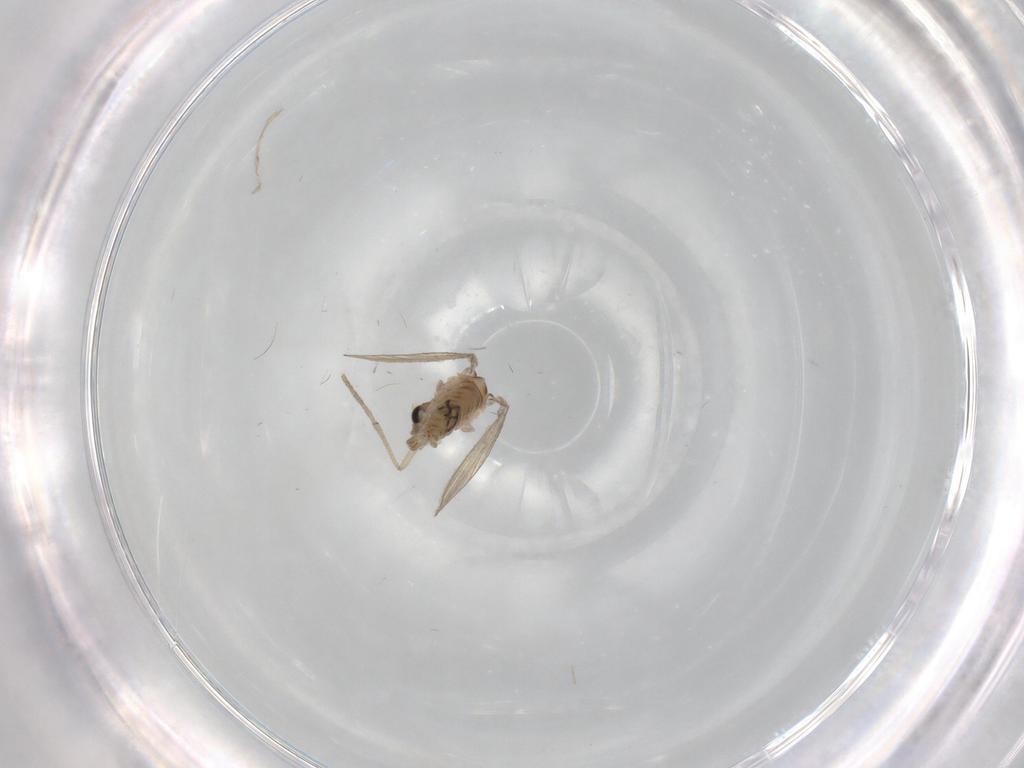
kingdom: Animalia
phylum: Arthropoda
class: Insecta
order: Diptera
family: Psychodidae
